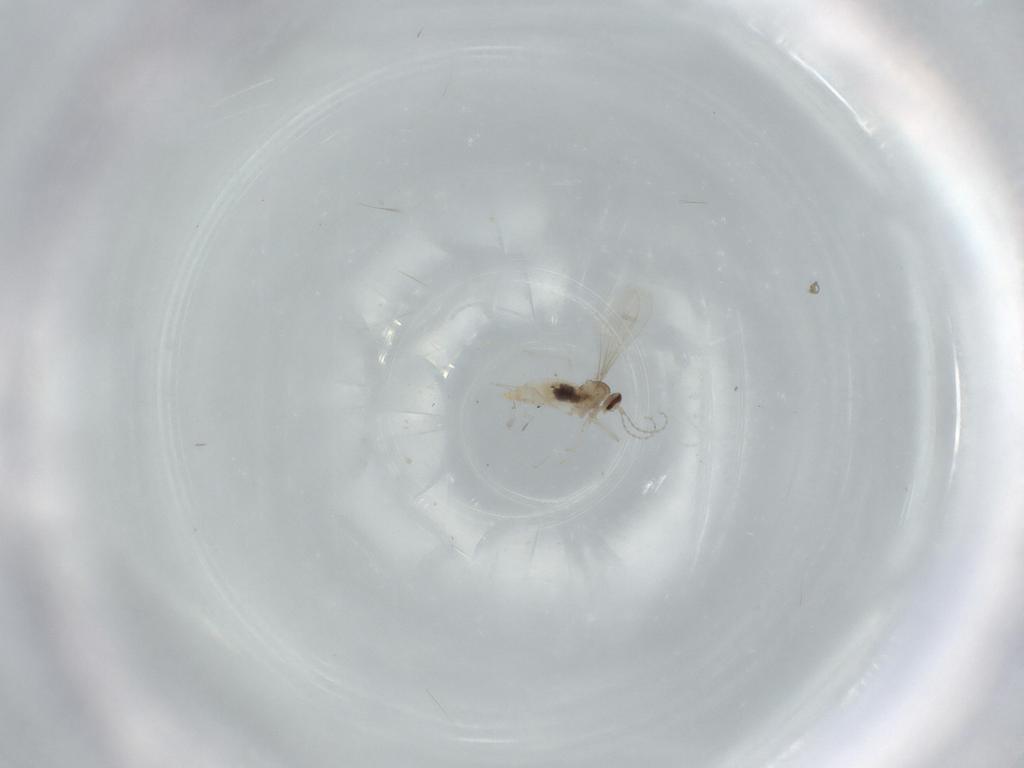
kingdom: Animalia
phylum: Arthropoda
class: Insecta
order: Diptera
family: Cecidomyiidae
